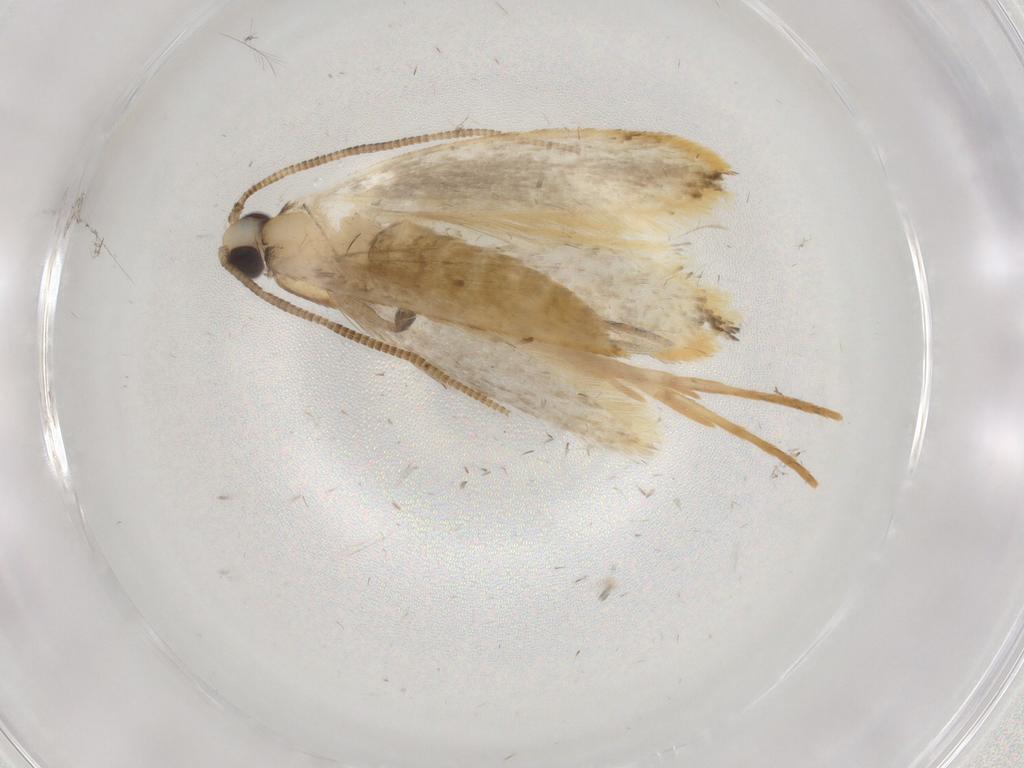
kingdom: Animalia
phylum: Arthropoda
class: Insecta
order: Lepidoptera
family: Tineidae
